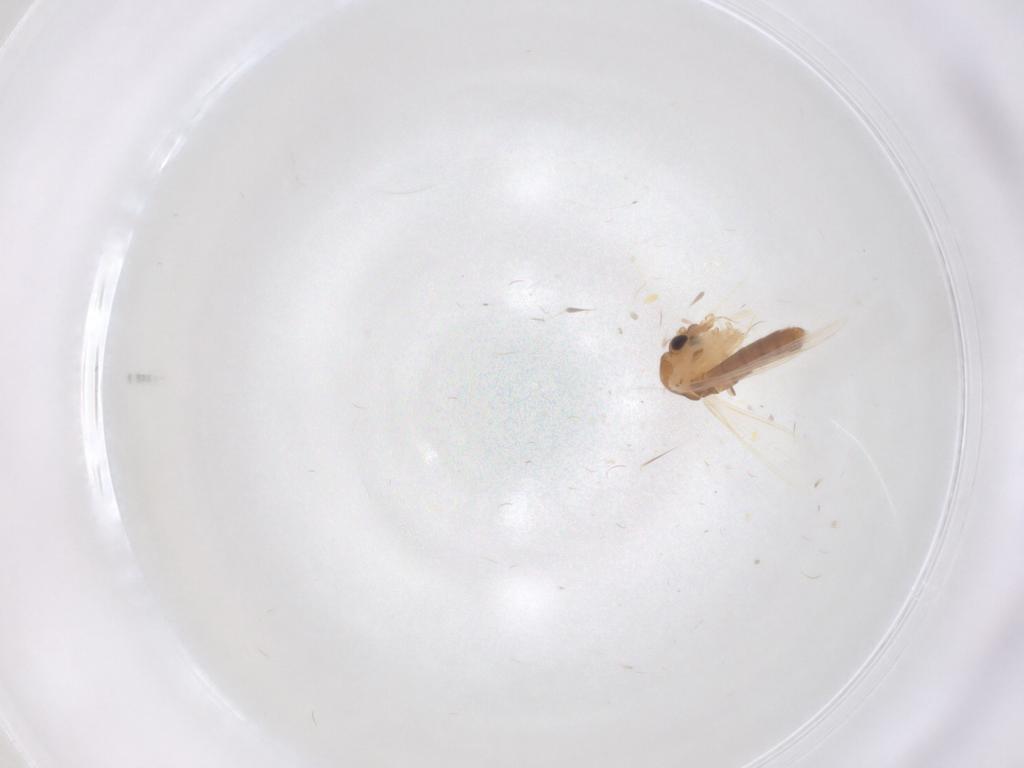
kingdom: Animalia
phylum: Arthropoda
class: Insecta
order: Diptera
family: Psychodidae
